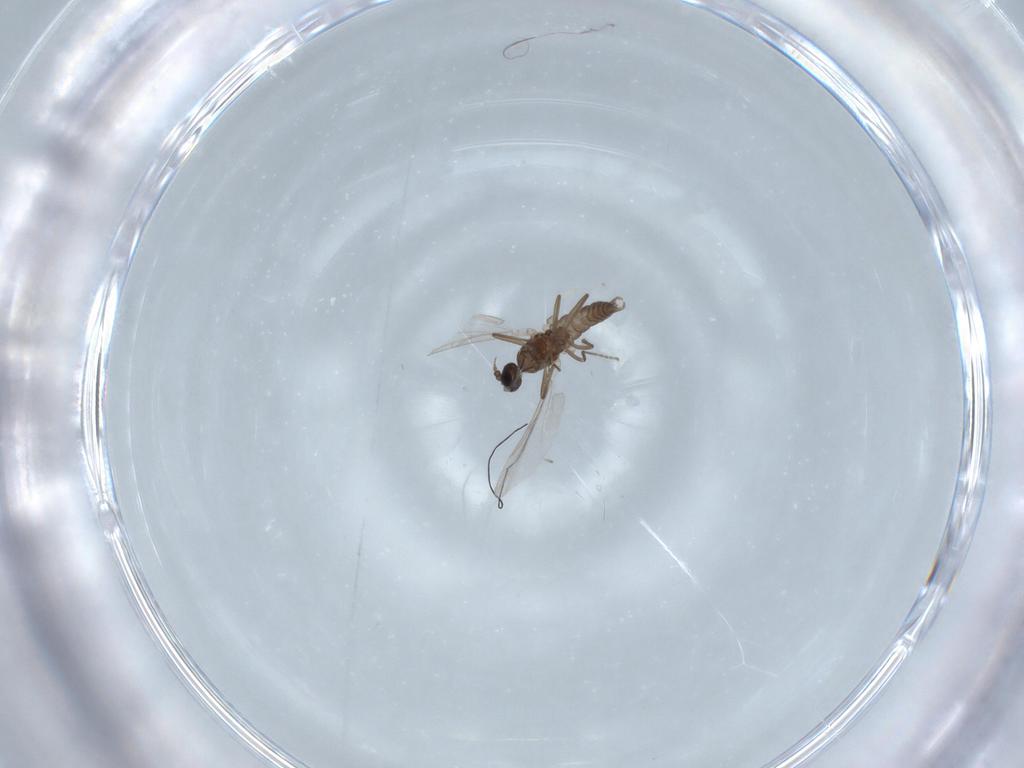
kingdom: Animalia
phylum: Arthropoda
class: Insecta
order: Diptera
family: Cecidomyiidae
